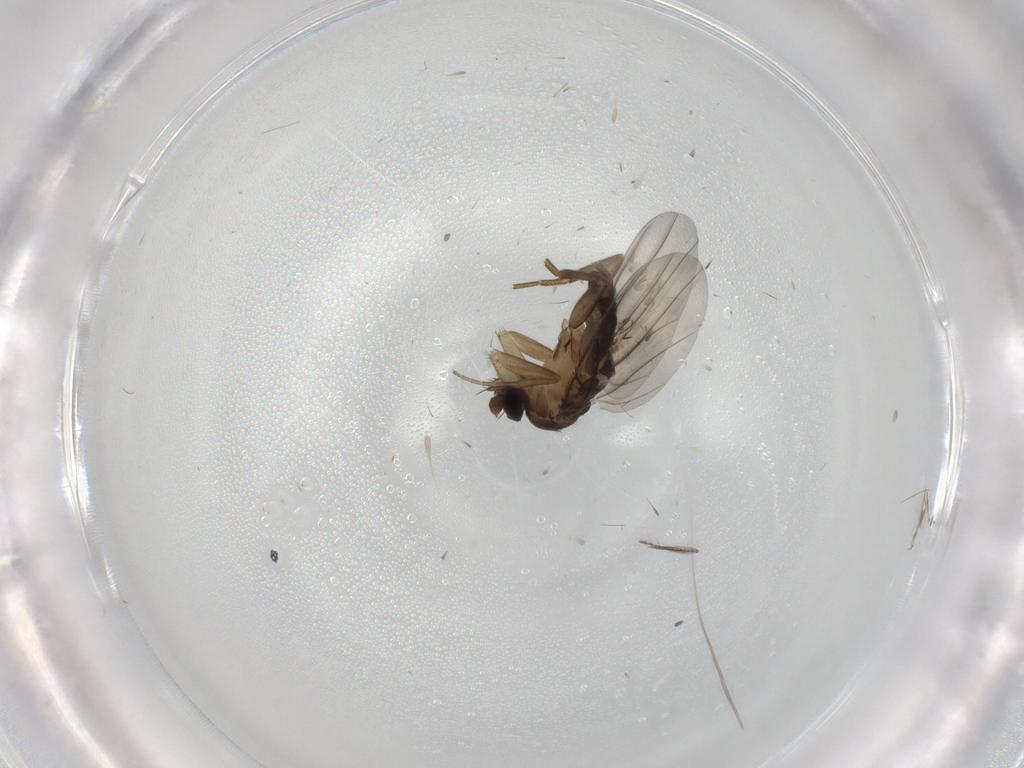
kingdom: Animalia
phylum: Arthropoda
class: Insecta
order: Diptera
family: Phoridae
